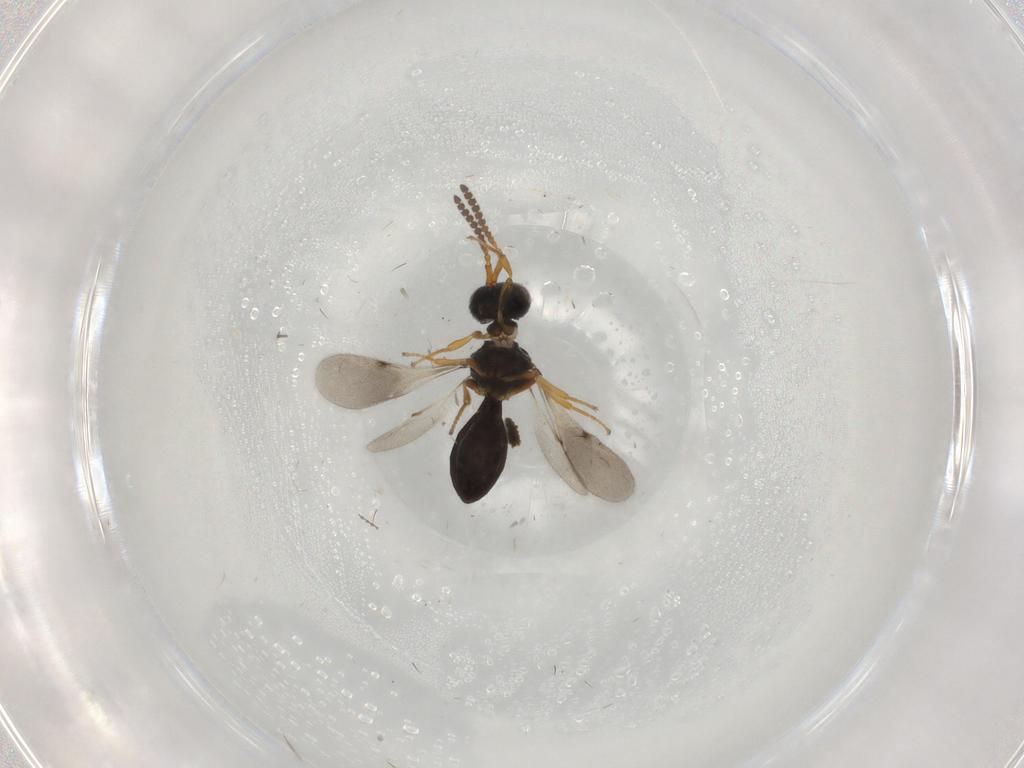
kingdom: Animalia
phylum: Arthropoda
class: Insecta
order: Hymenoptera
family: Scelionidae
